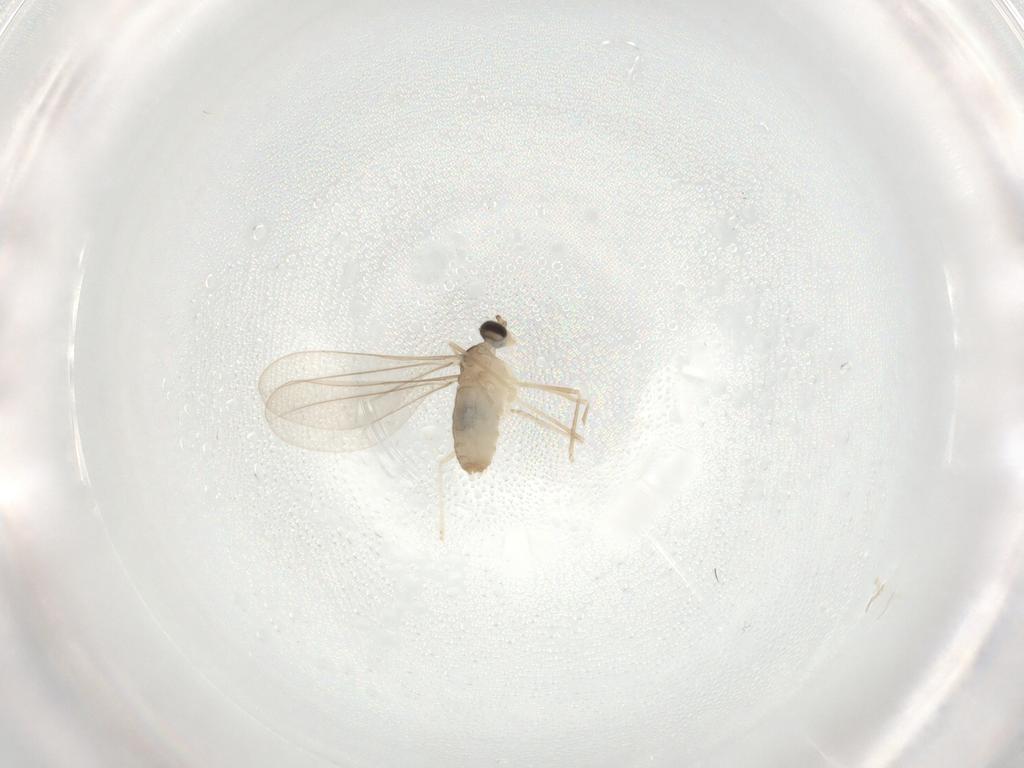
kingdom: Animalia
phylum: Arthropoda
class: Insecta
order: Diptera
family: Cecidomyiidae
